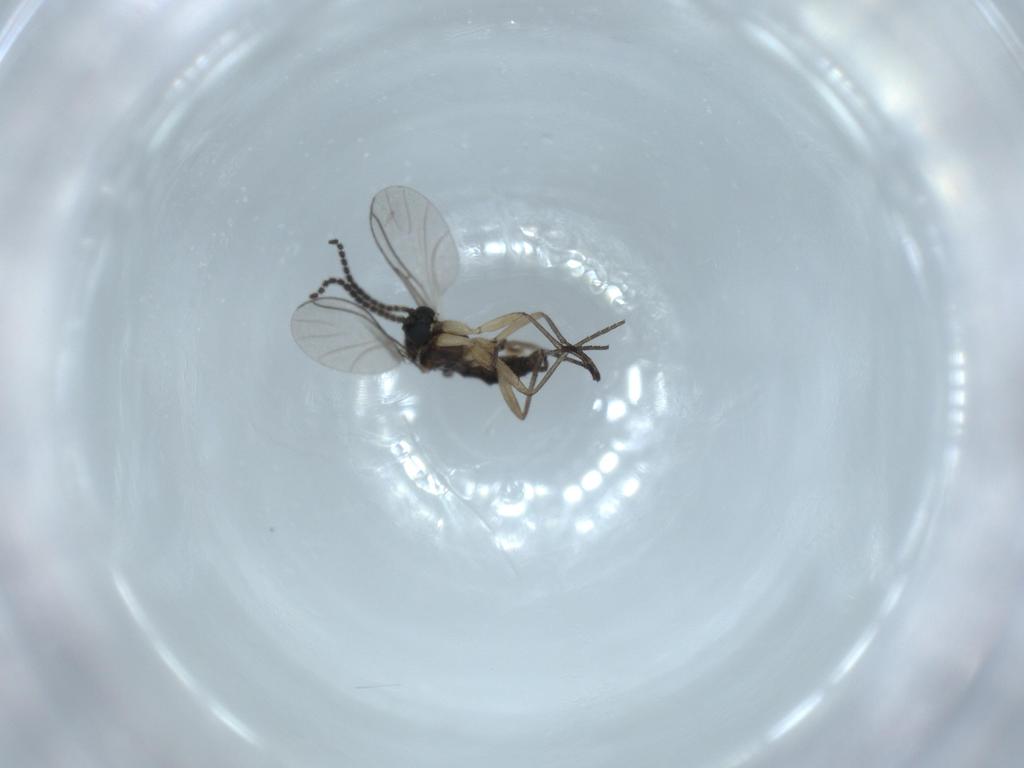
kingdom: Animalia
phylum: Arthropoda
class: Insecta
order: Diptera
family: Sciaridae
